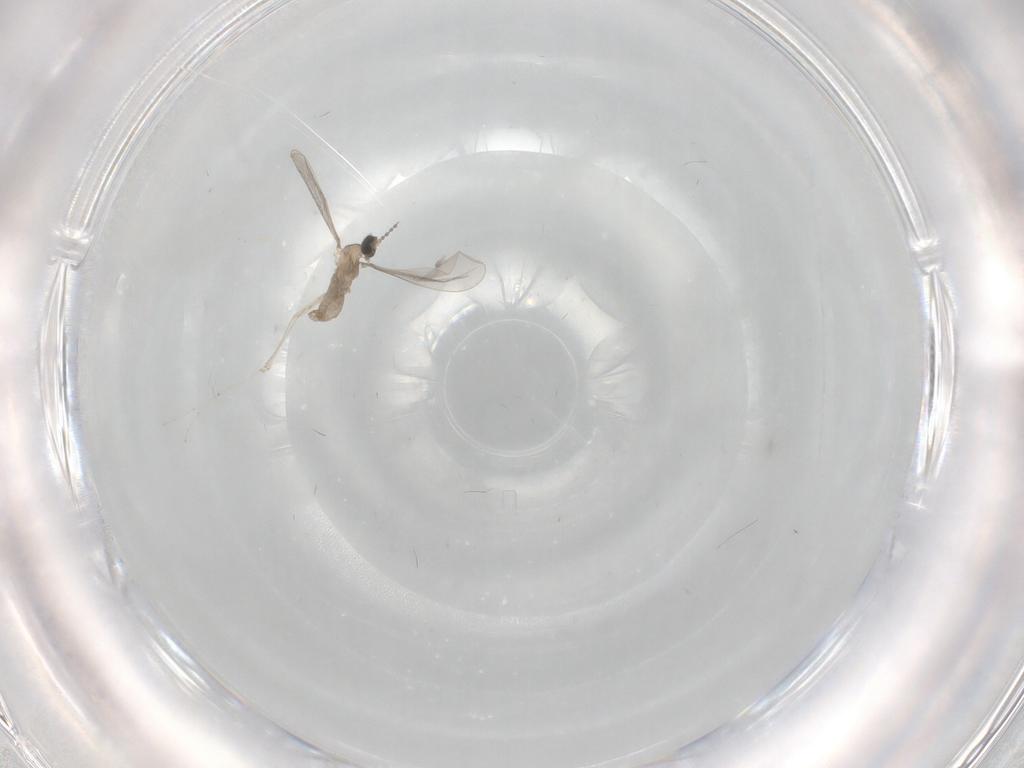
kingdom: Animalia
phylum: Arthropoda
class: Insecta
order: Diptera
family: Cecidomyiidae
